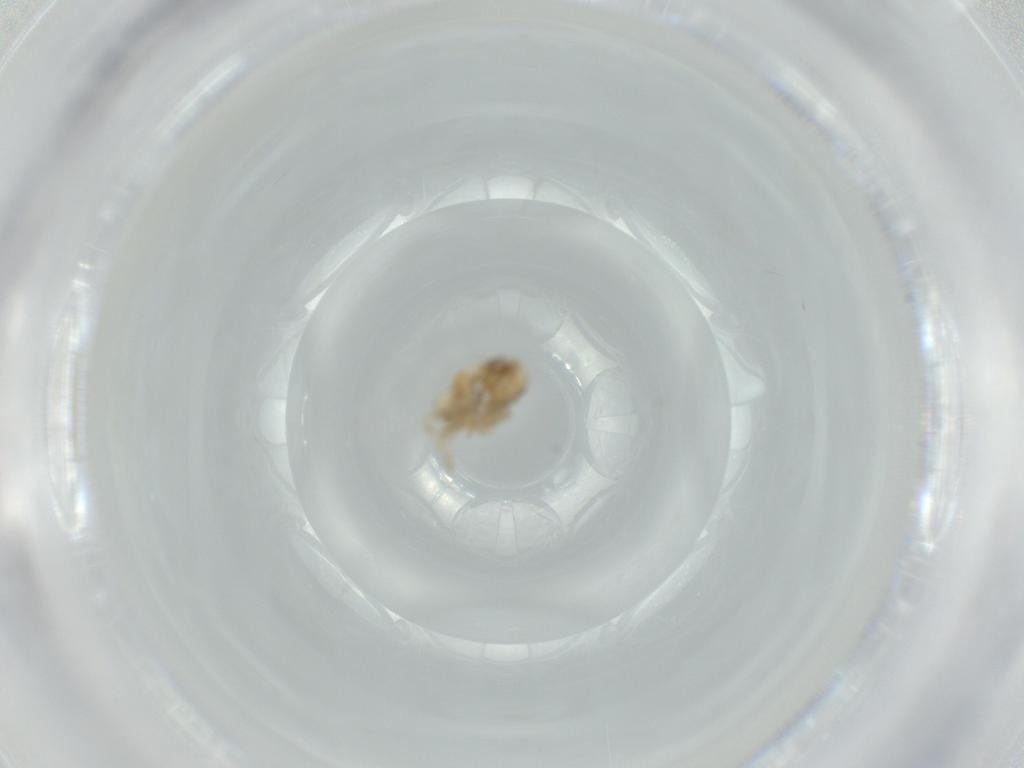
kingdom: Animalia
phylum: Arthropoda
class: Insecta
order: Hemiptera
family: Acanaloniidae
